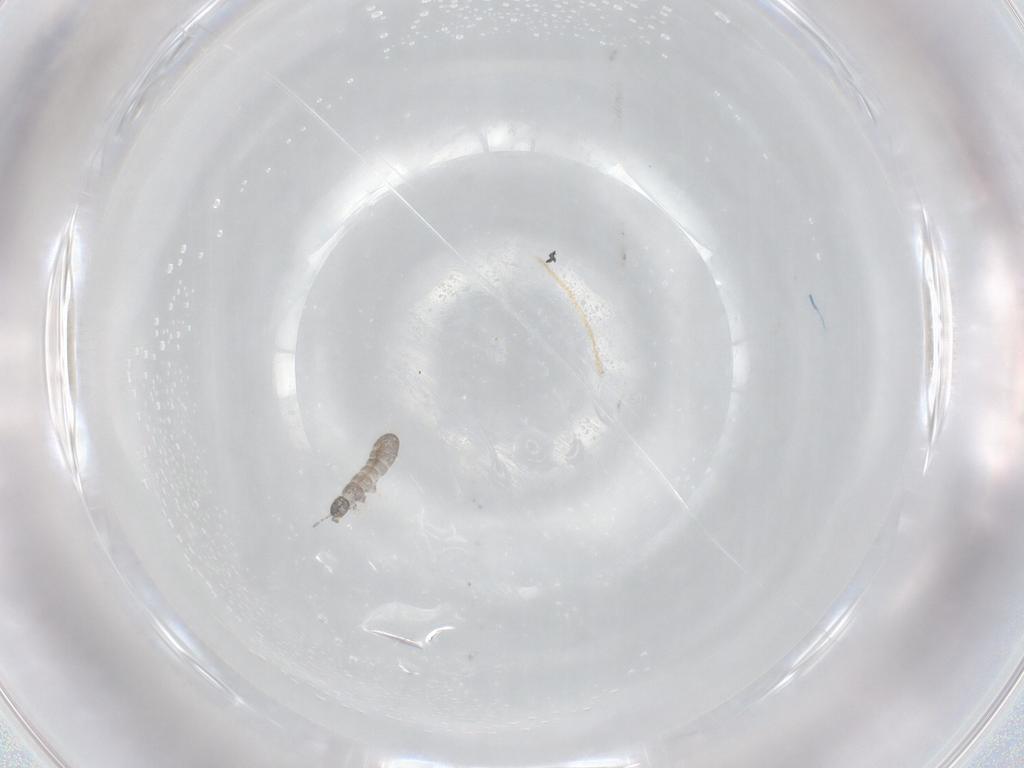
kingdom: Animalia
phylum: Arthropoda
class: Collembola
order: Entomobryomorpha
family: Isotomidae
